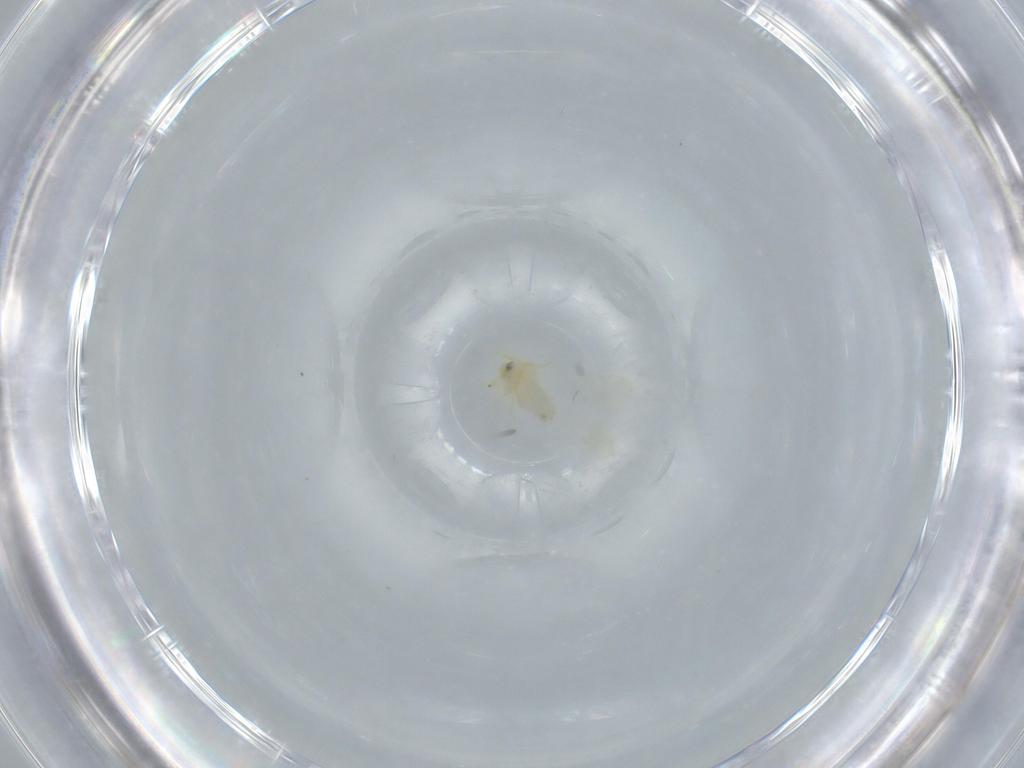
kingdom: Animalia
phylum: Arthropoda
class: Insecta
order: Hemiptera
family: Aleyrodidae
